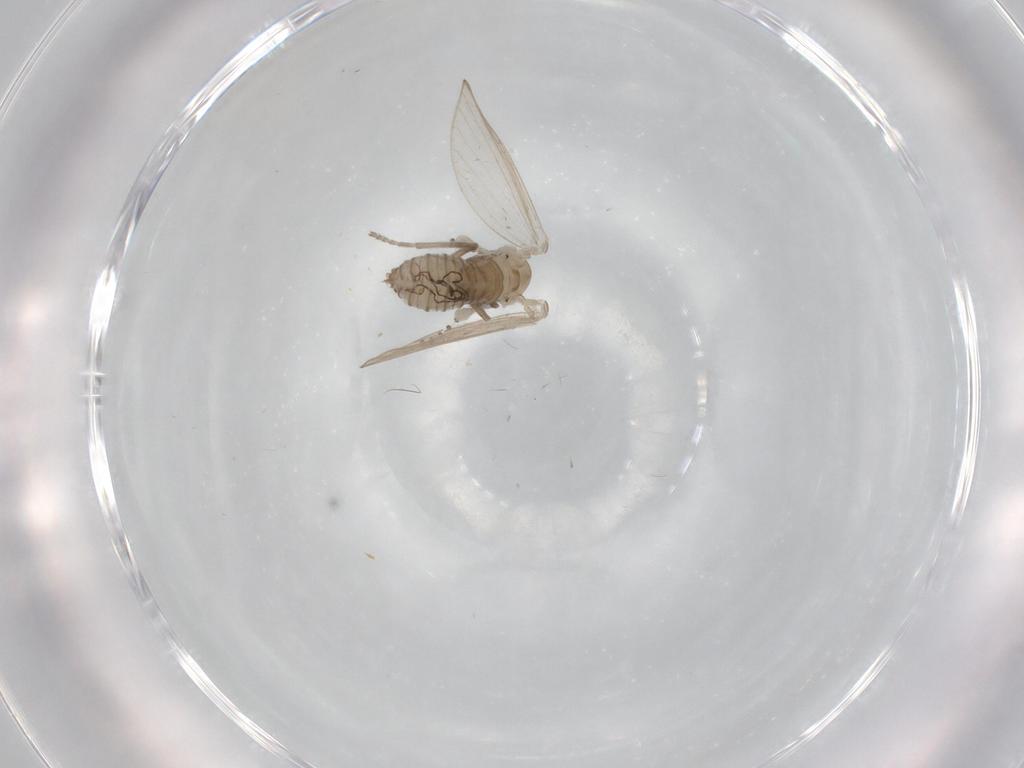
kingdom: Animalia
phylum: Arthropoda
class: Insecta
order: Diptera
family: Psychodidae
